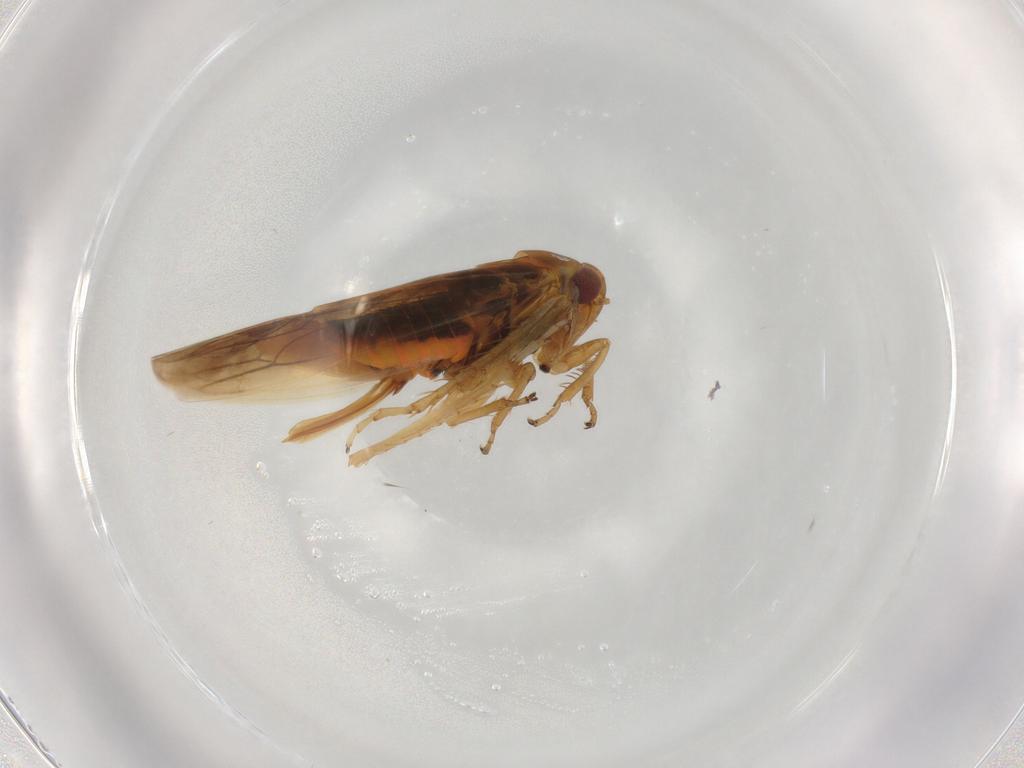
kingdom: Animalia
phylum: Arthropoda
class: Insecta
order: Hemiptera
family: Cicadellidae
